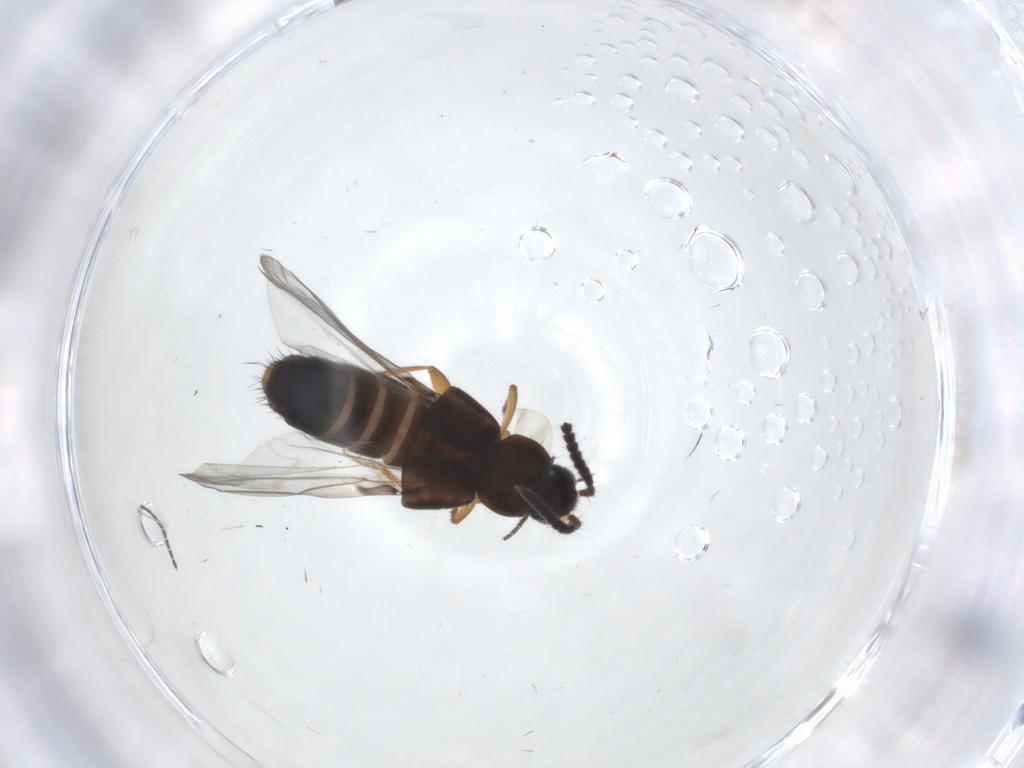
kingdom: Animalia
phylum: Arthropoda
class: Insecta
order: Coleoptera
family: Staphylinidae
